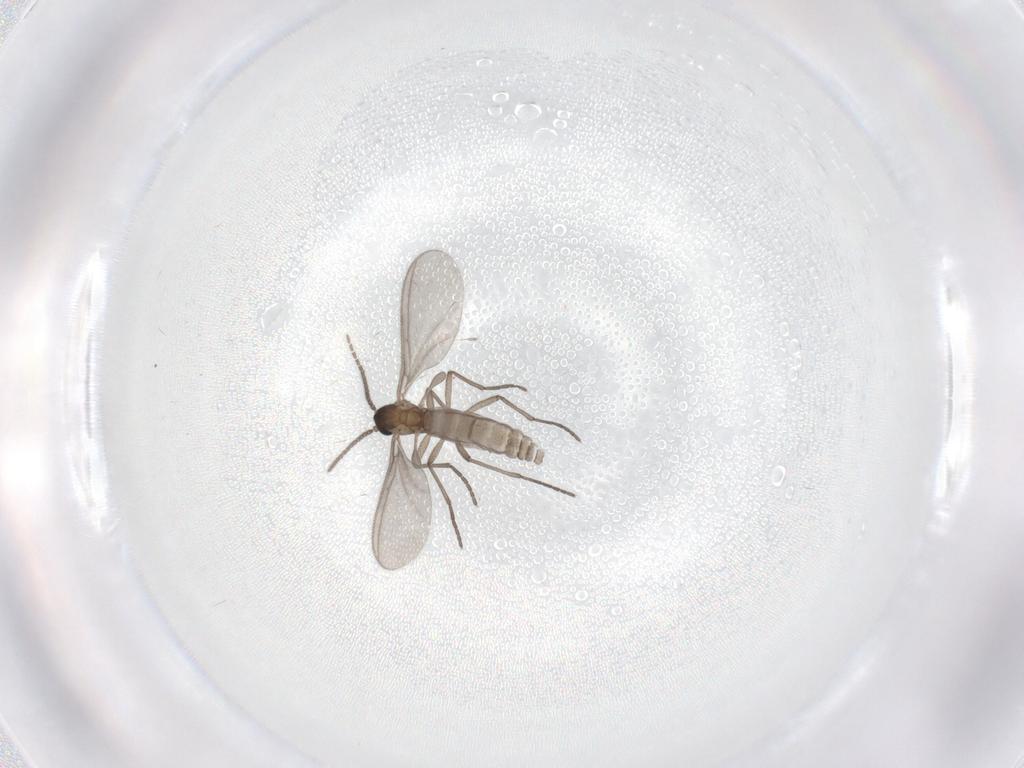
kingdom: Animalia
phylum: Arthropoda
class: Insecta
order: Diptera
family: Sciaridae
